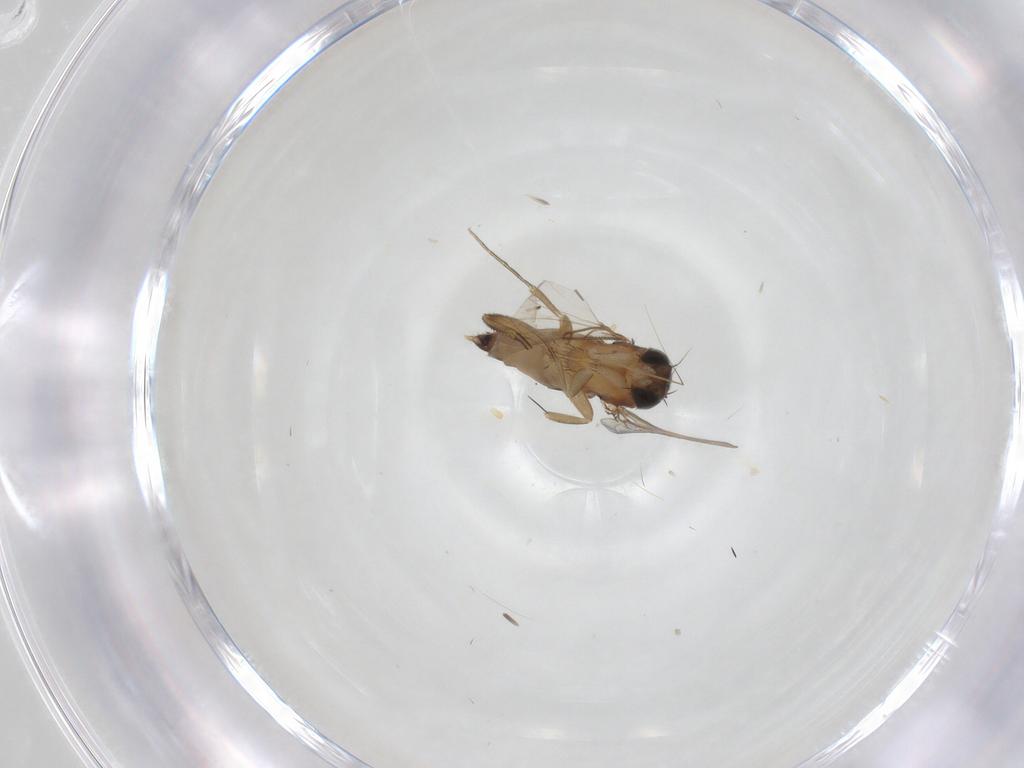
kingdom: Animalia
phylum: Arthropoda
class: Insecta
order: Diptera
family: Phoridae
